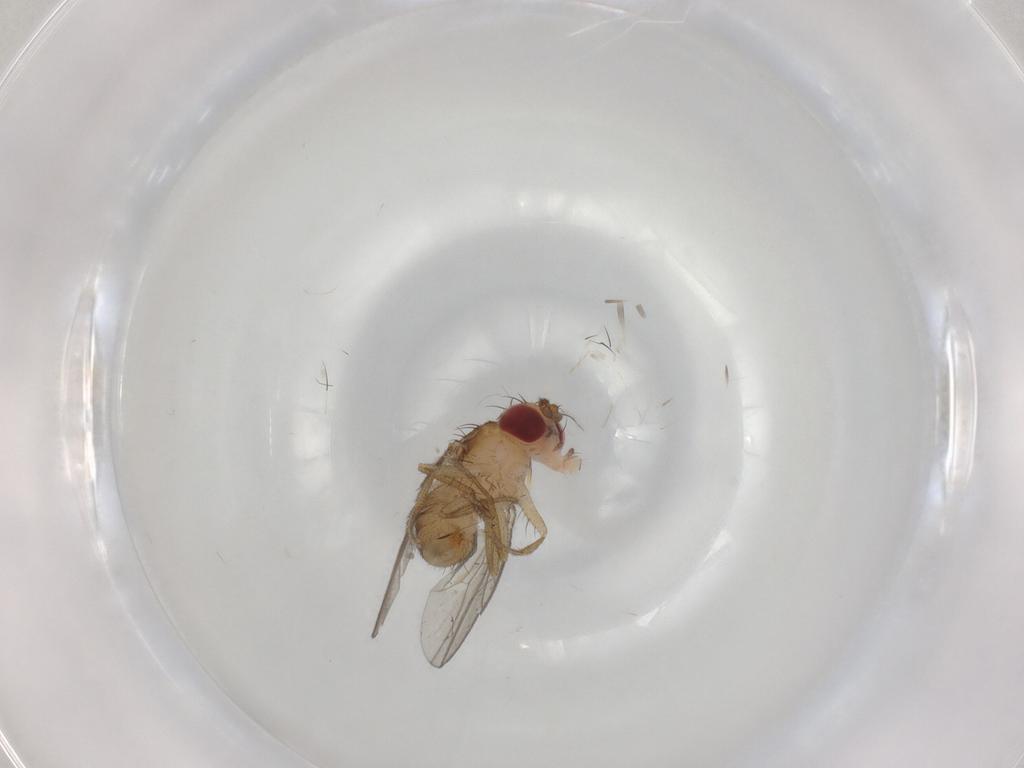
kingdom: Animalia
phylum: Arthropoda
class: Insecta
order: Diptera
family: Drosophilidae
